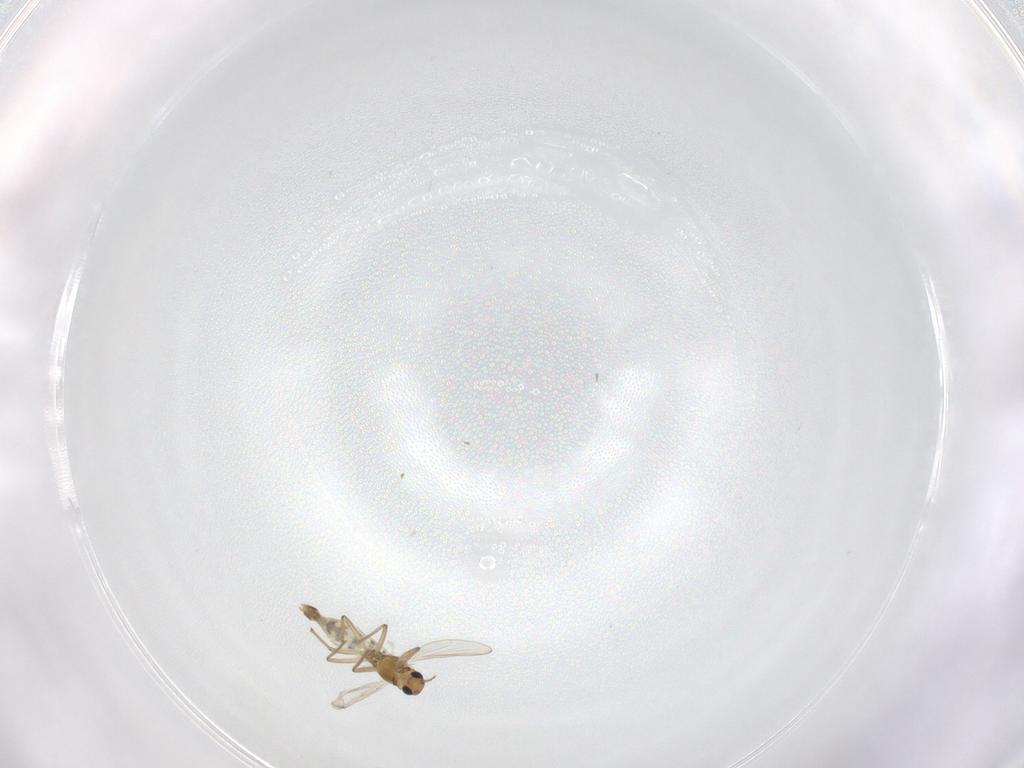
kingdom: Animalia
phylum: Arthropoda
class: Insecta
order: Diptera
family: Chironomidae
